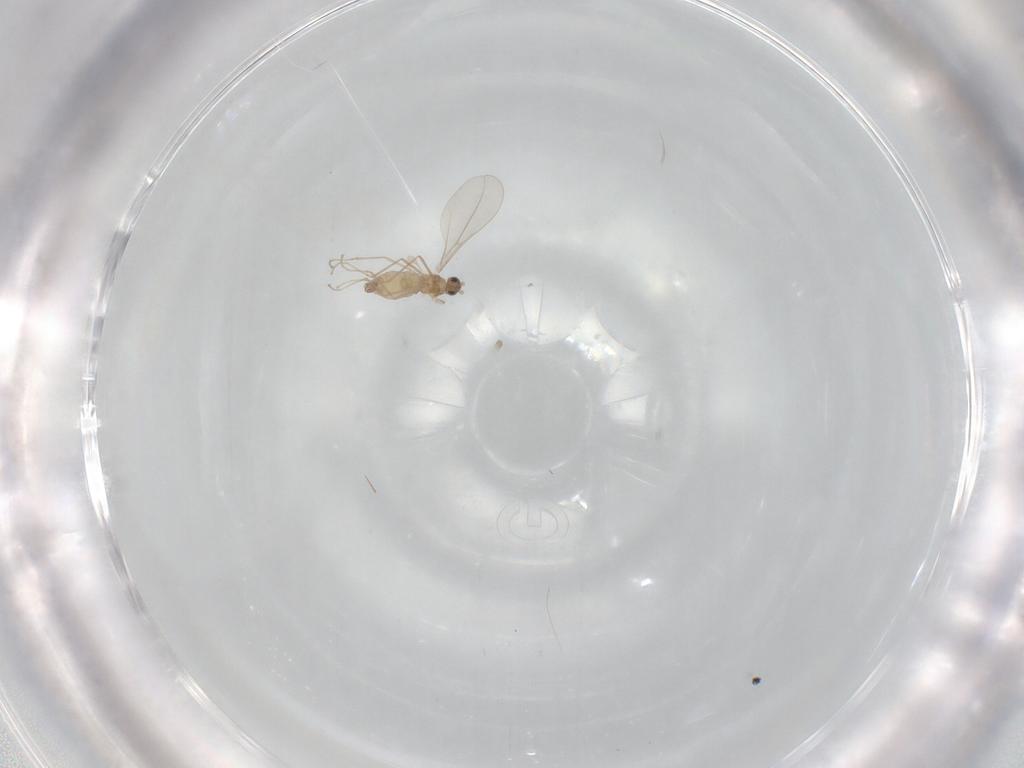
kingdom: Animalia
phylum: Arthropoda
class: Insecta
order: Diptera
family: Cecidomyiidae
